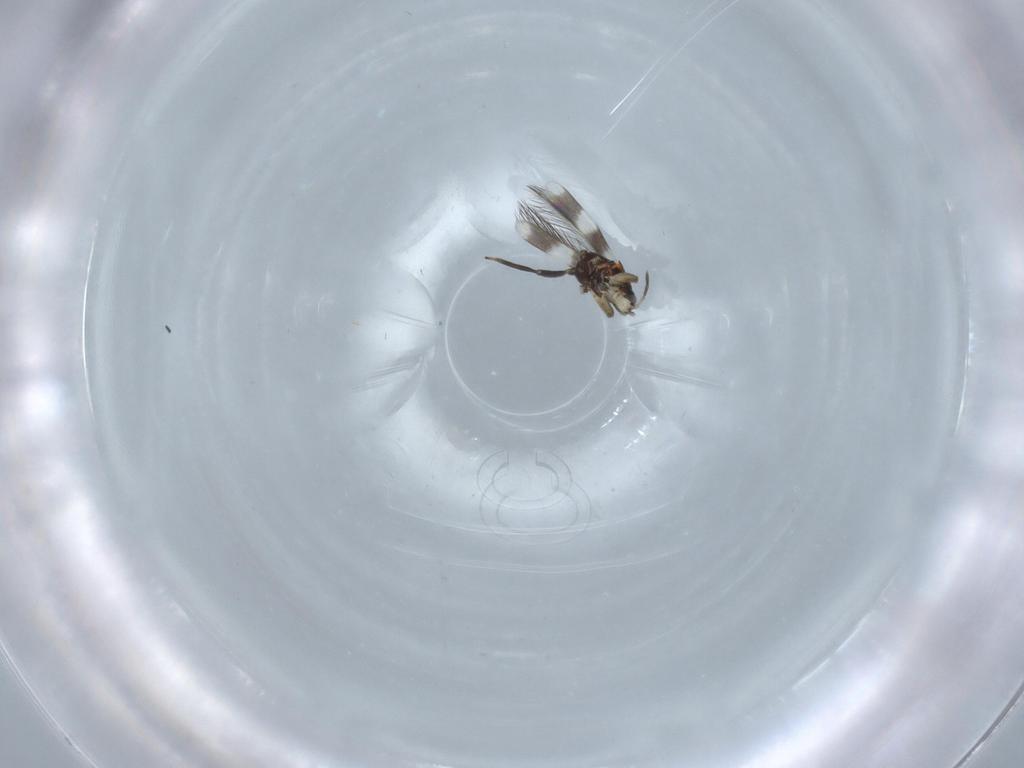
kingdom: Animalia
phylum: Arthropoda
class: Insecta
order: Thysanoptera
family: Aeolothripidae
